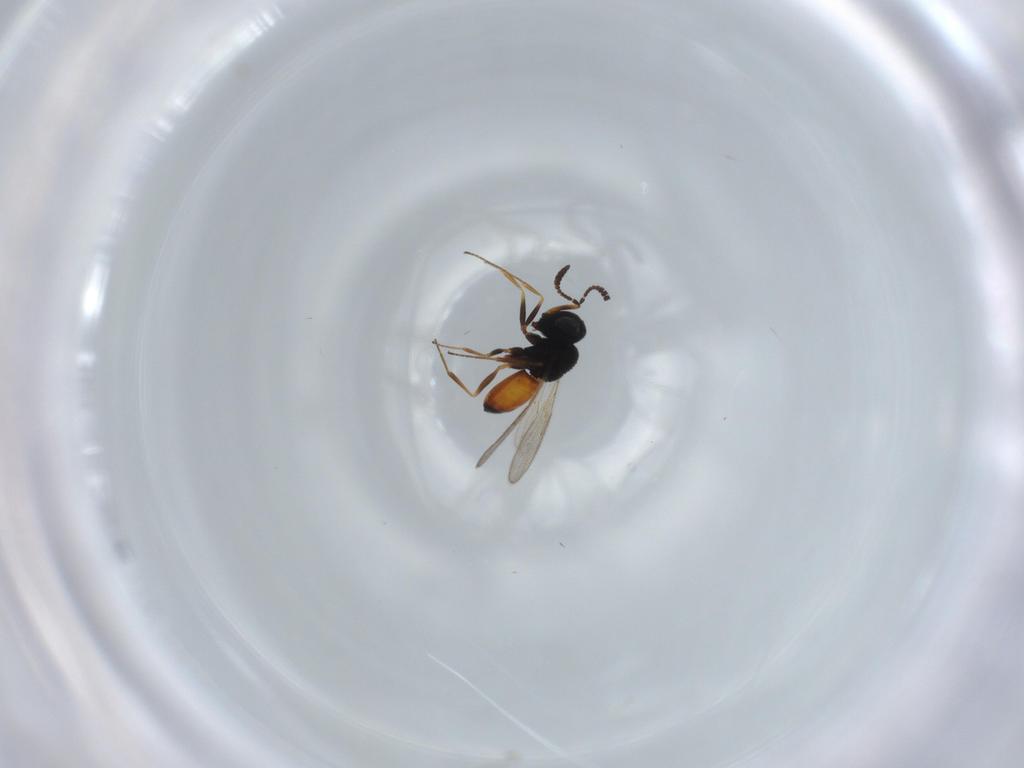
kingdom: Animalia
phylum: Arthropoda
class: Insecta
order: Hymenoptera
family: Scelionidae
